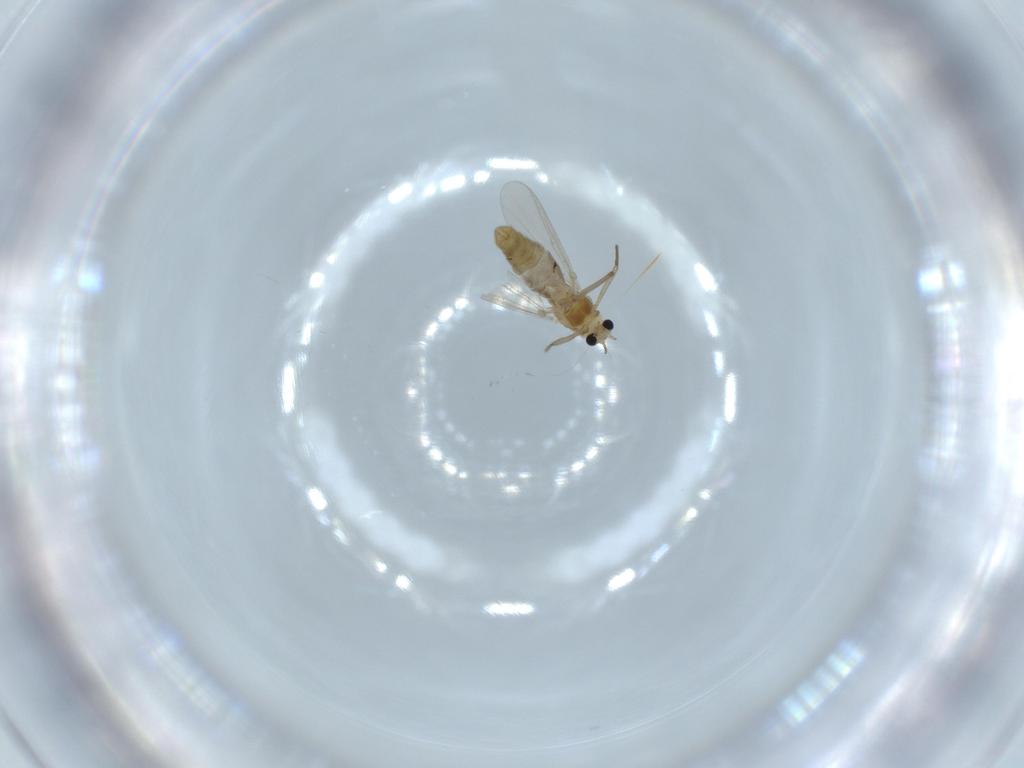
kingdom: Animalia
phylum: Arthropoda
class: Insecta
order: Diptera
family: Chironomidae
